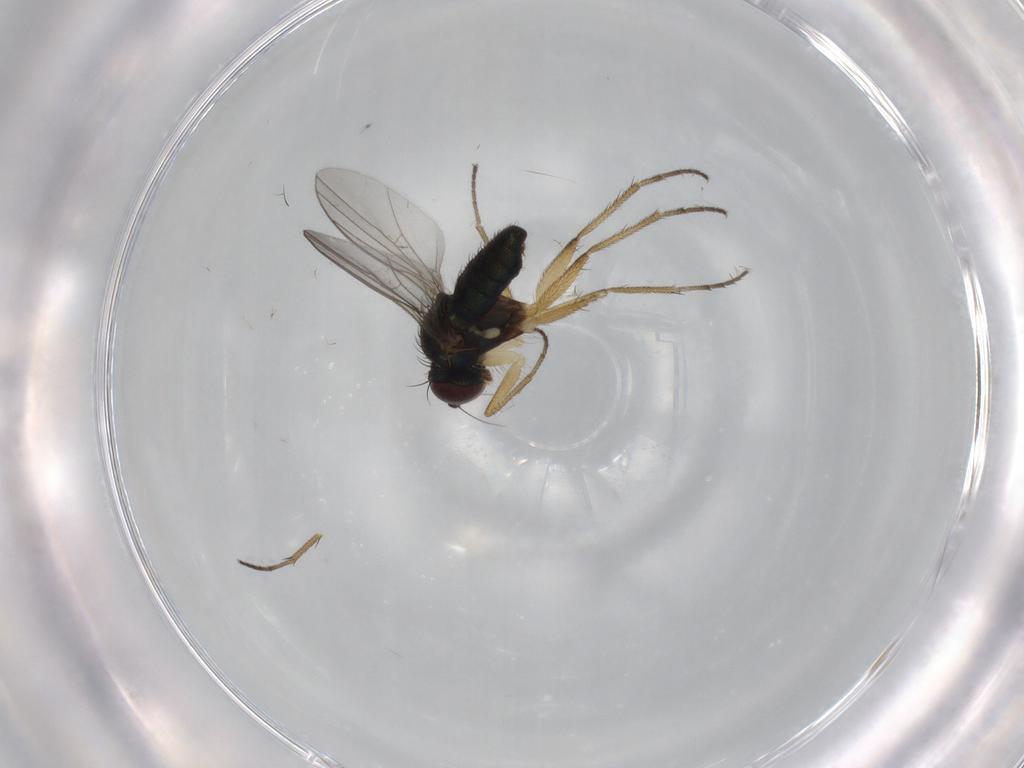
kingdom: Animalia
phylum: Arthropoda
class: Insecta
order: Diptera
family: Dolichopodidae
